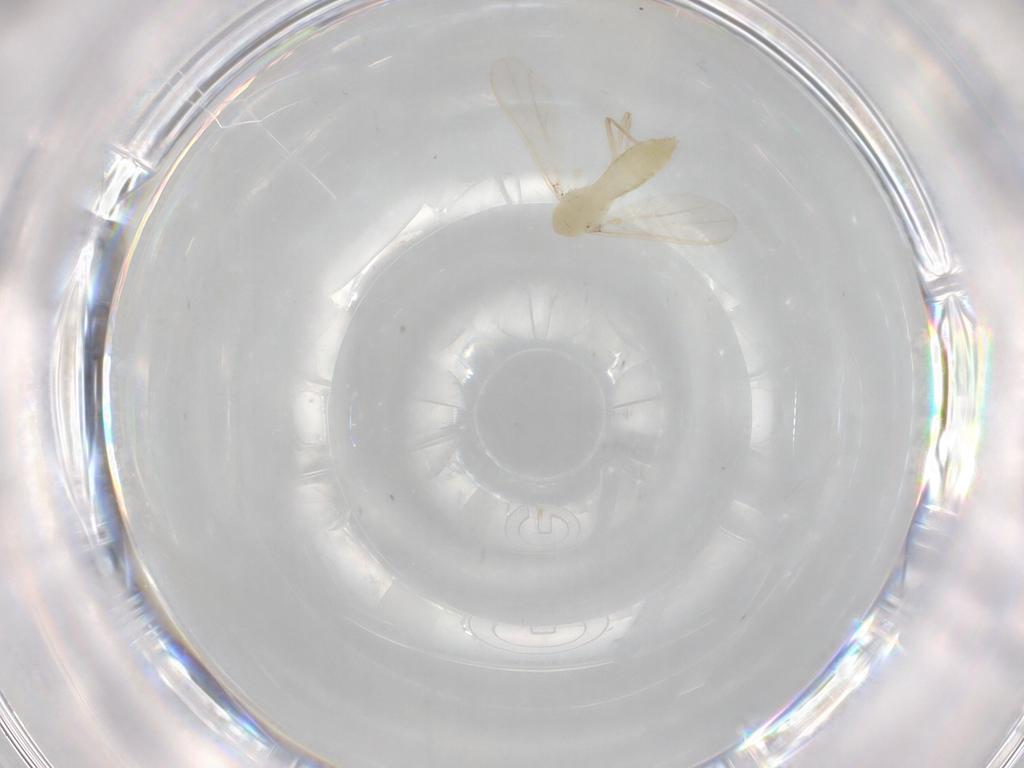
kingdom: Animalia
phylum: Arthropoda
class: Insecta
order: Diptera
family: Chironomidae
